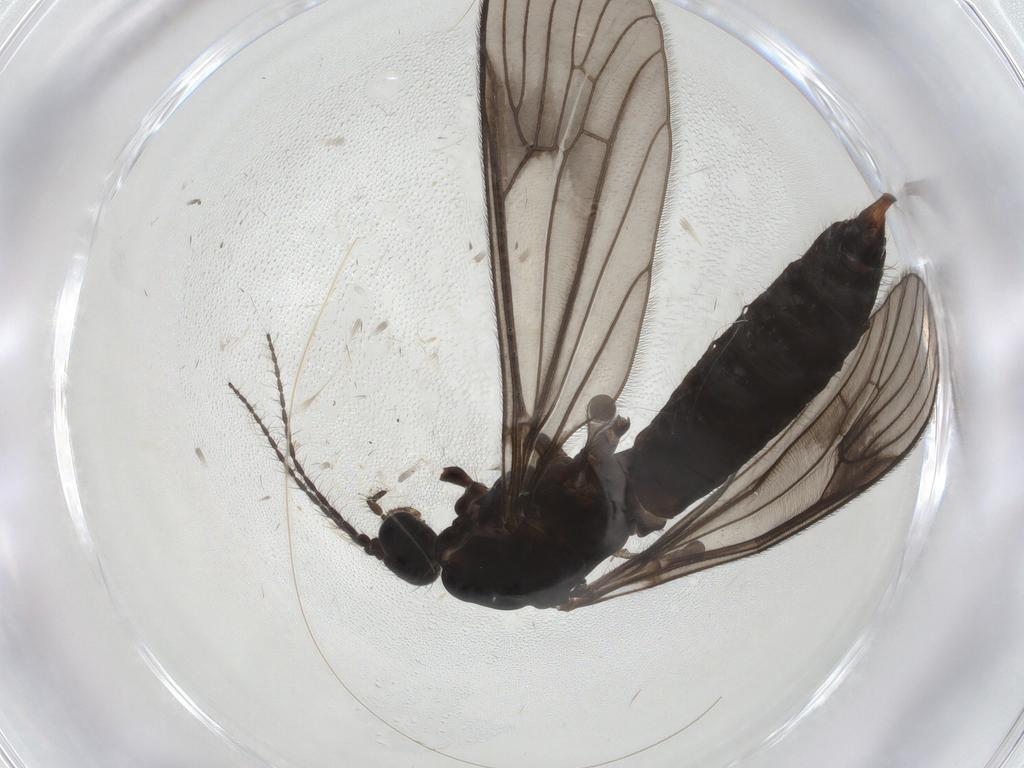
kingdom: Animalia
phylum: Arthropoda
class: Insecta
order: Diptera
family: Limoniidae
